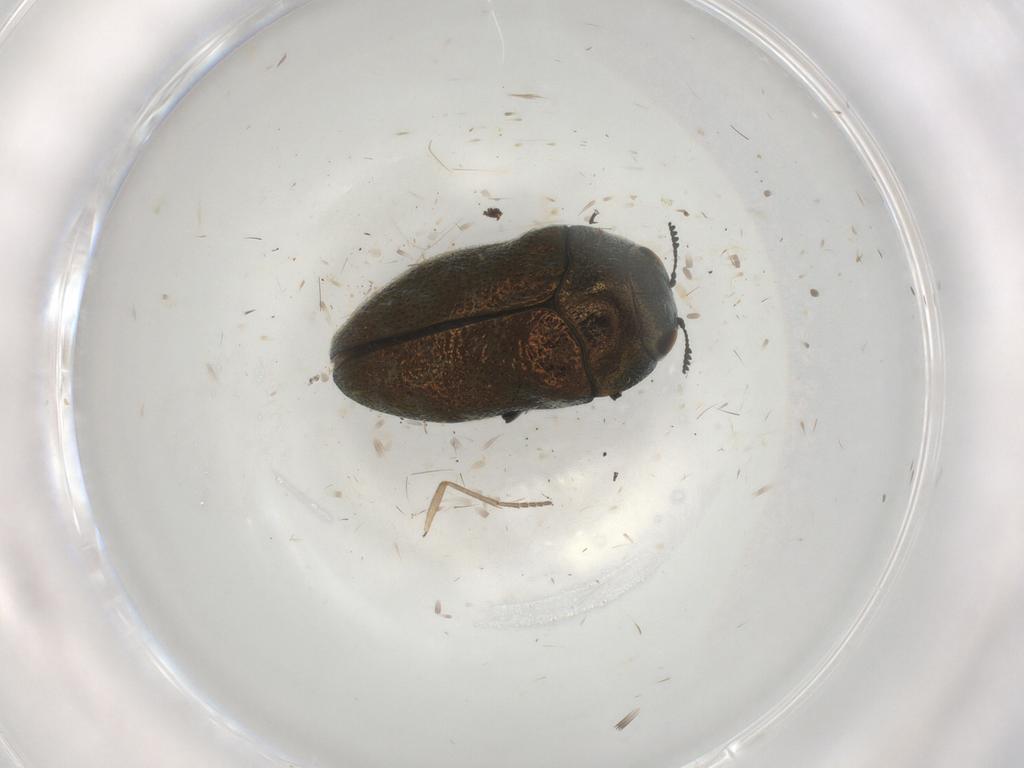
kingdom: Animalia
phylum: Arthropoda
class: Insecta
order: Coleoptera
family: Buprestidae
